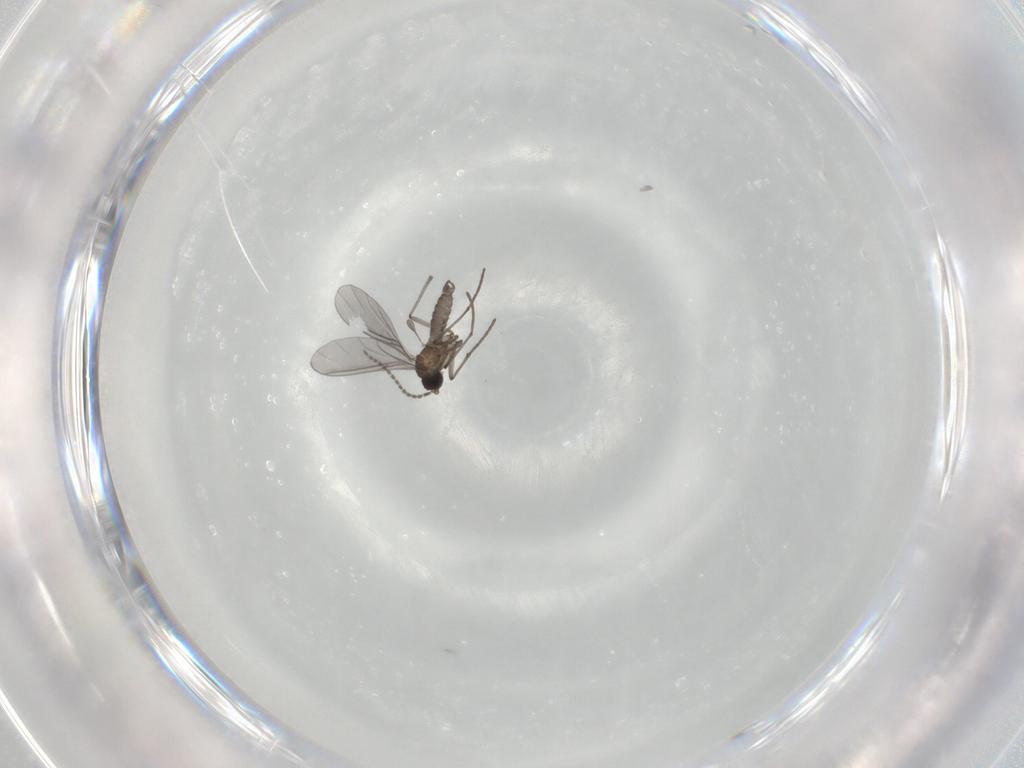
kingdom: Animalia
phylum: Arthropoda
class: Insecta
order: Diptera
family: Sciaridae
